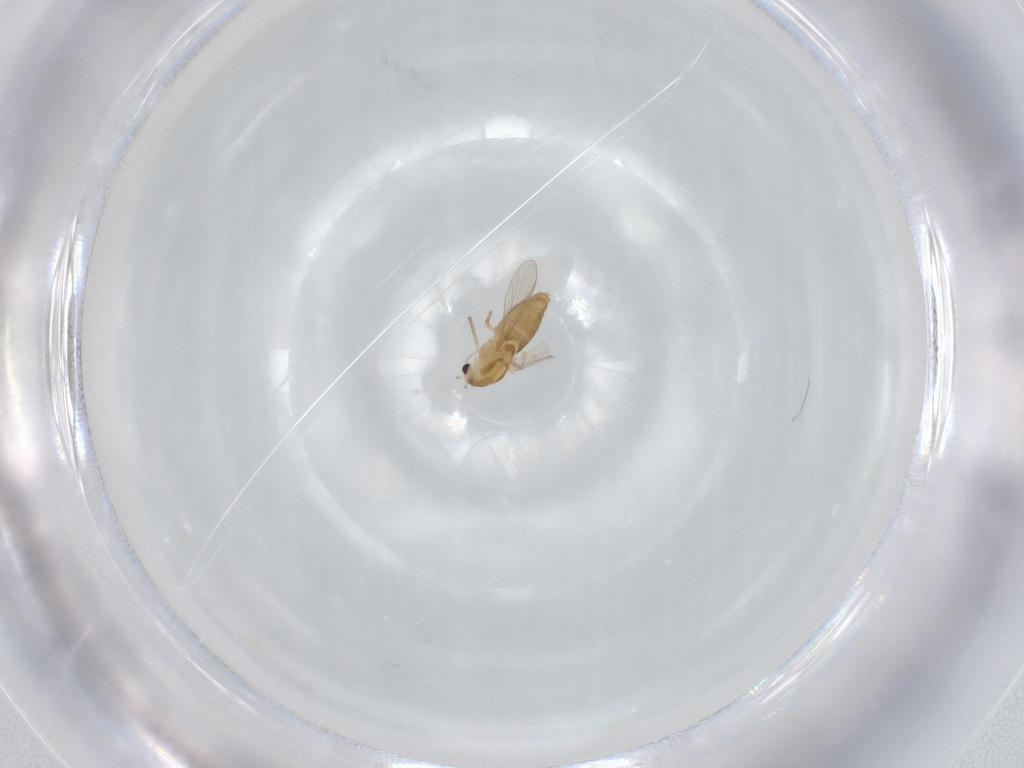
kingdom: Animalia
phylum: Arthropoda
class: Insecta
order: Diptera
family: Chironomidae
